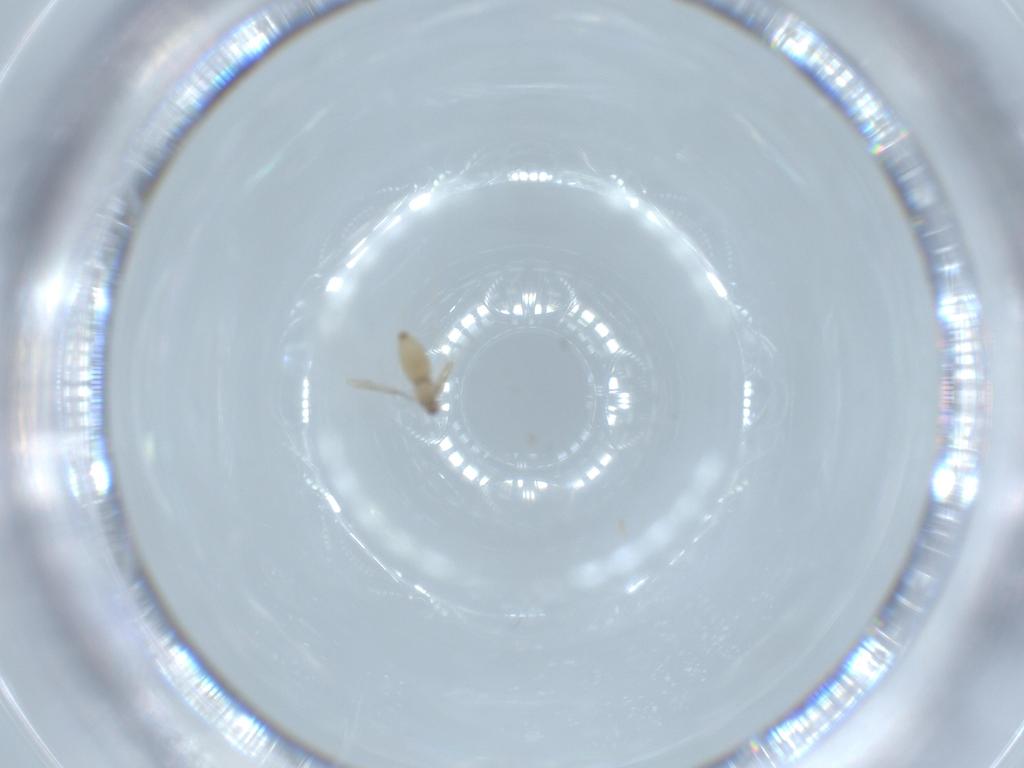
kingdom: Animalia
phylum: Arthropoda
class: Insecta
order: Diptera
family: Cecidomyiidae
